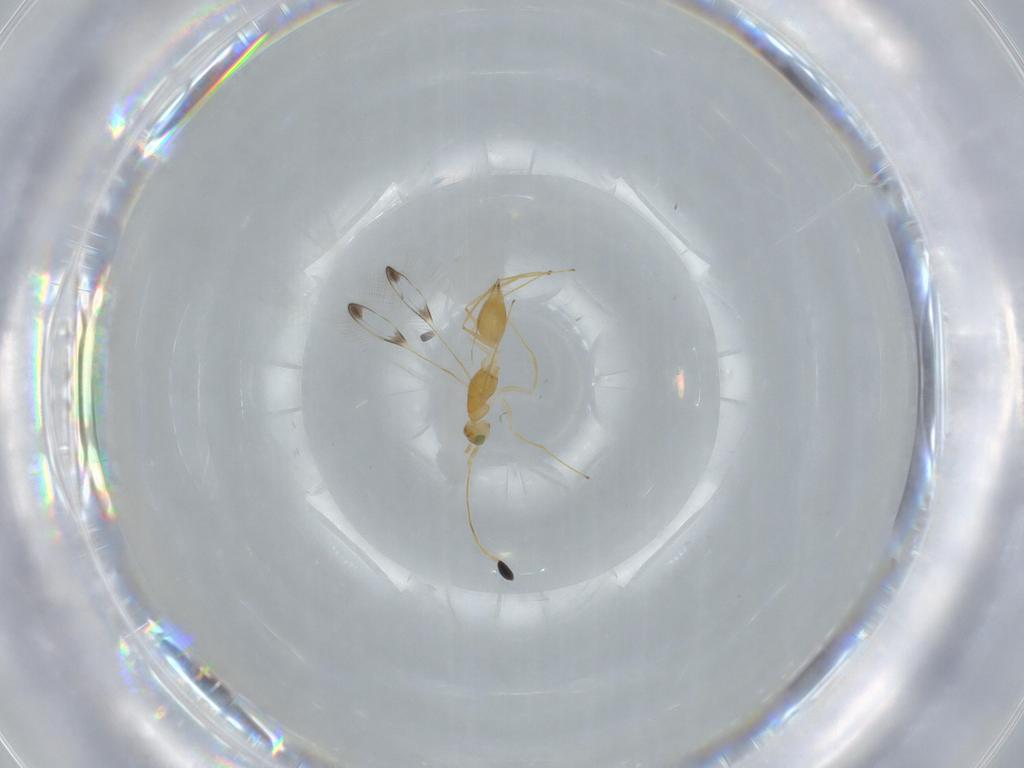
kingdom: Animalia
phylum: Arthropoda
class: Insecta
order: Hymenoptera
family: Mymaridae
